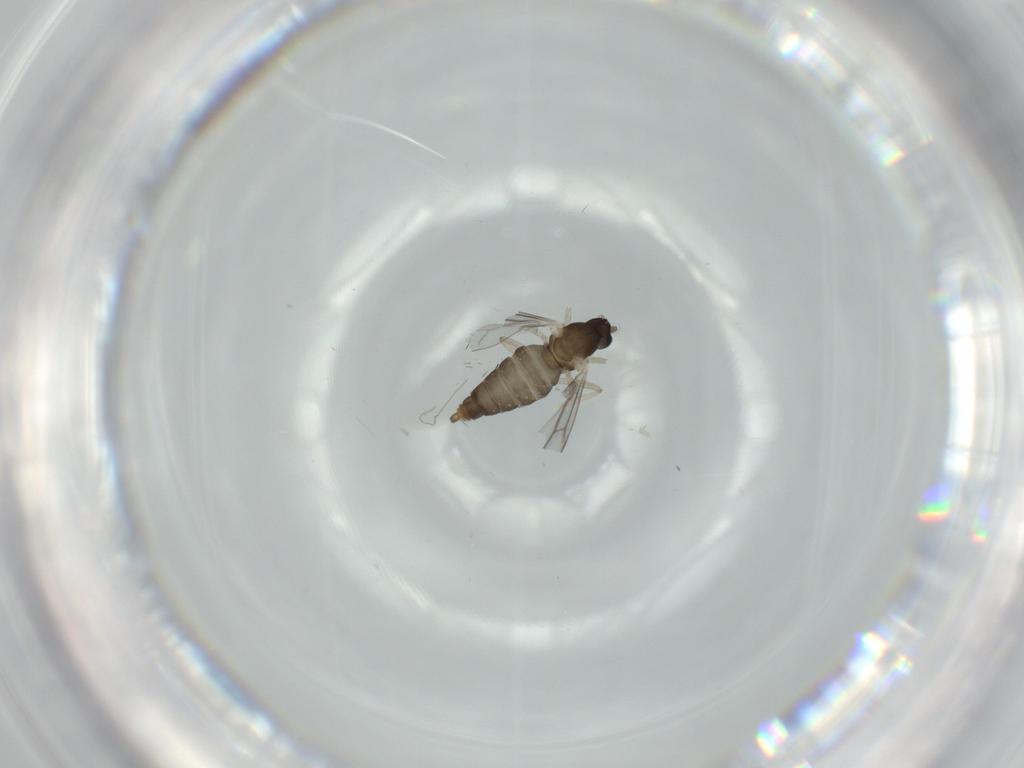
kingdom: Animalia
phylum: Arthropoda
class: Insecta
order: Diptera
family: Cecidomyiidae
